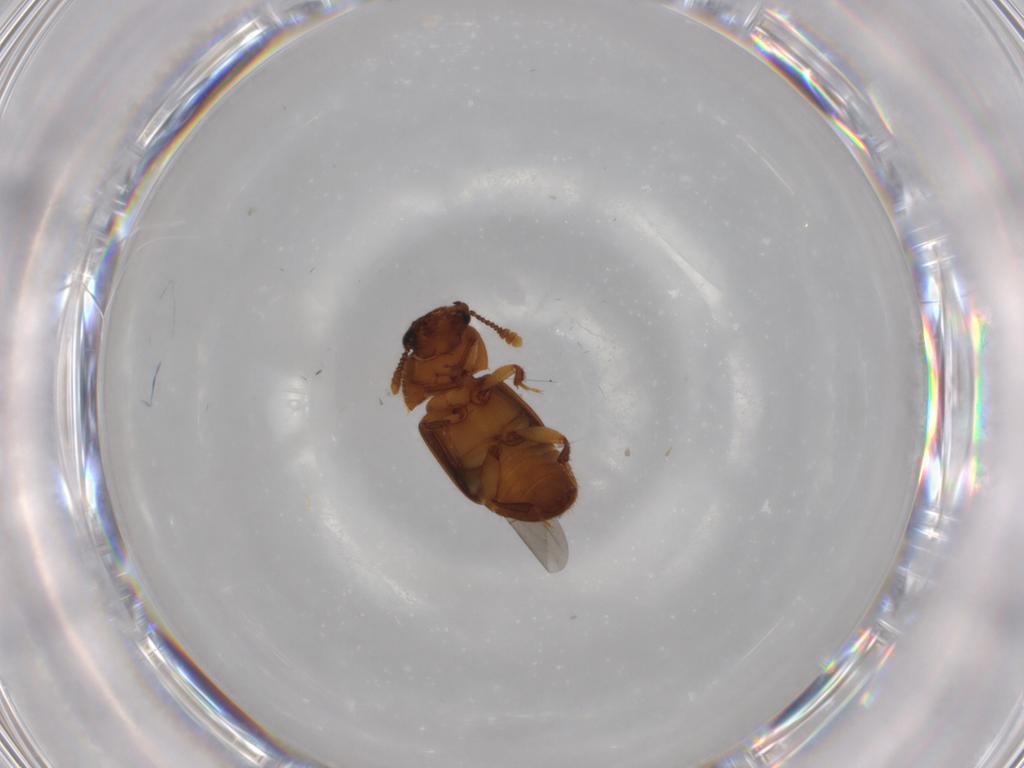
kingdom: Animalia
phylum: Arthropoda
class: Insecta
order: Coleoptera
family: Nitidulidae
